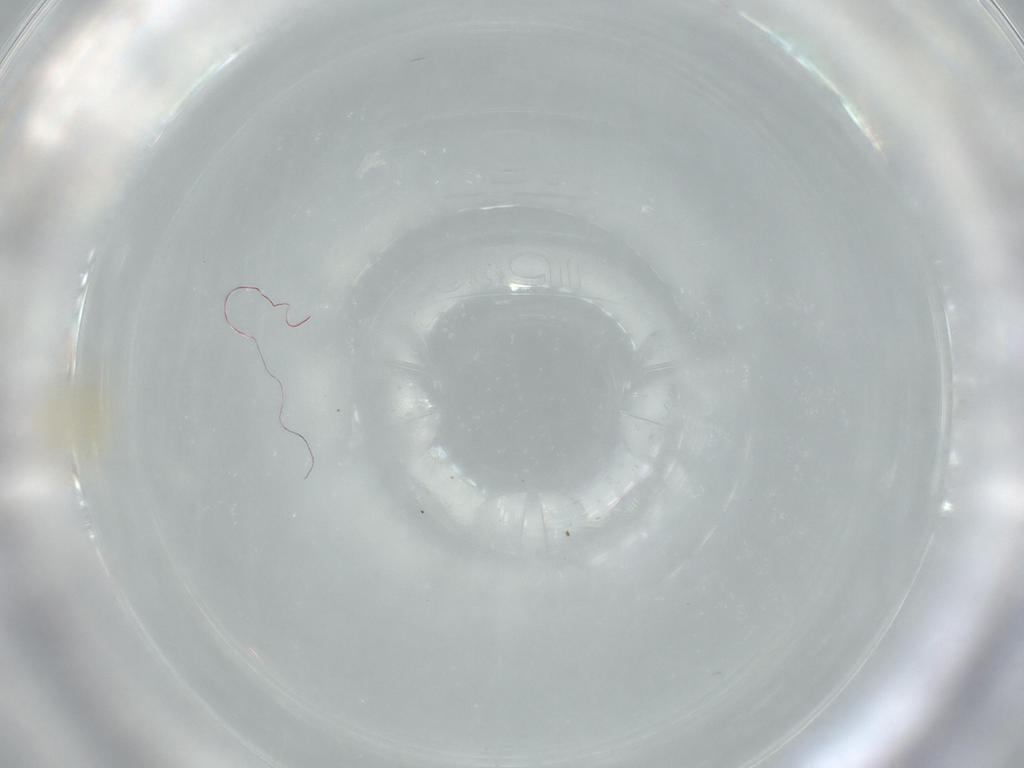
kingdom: Animalia
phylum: Arthropoda
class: Insecta
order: Thysanoptera
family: Thripidae
